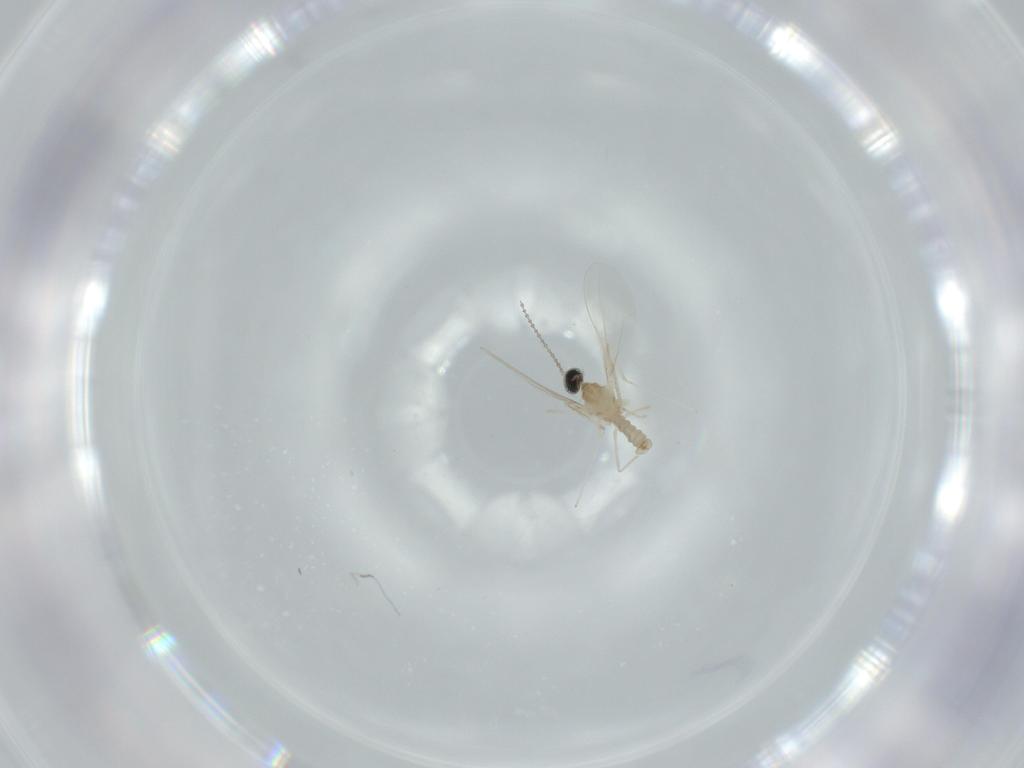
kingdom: Animalia
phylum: Arthropoda
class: Insecta
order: Diptera
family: Cecidomyiidae
